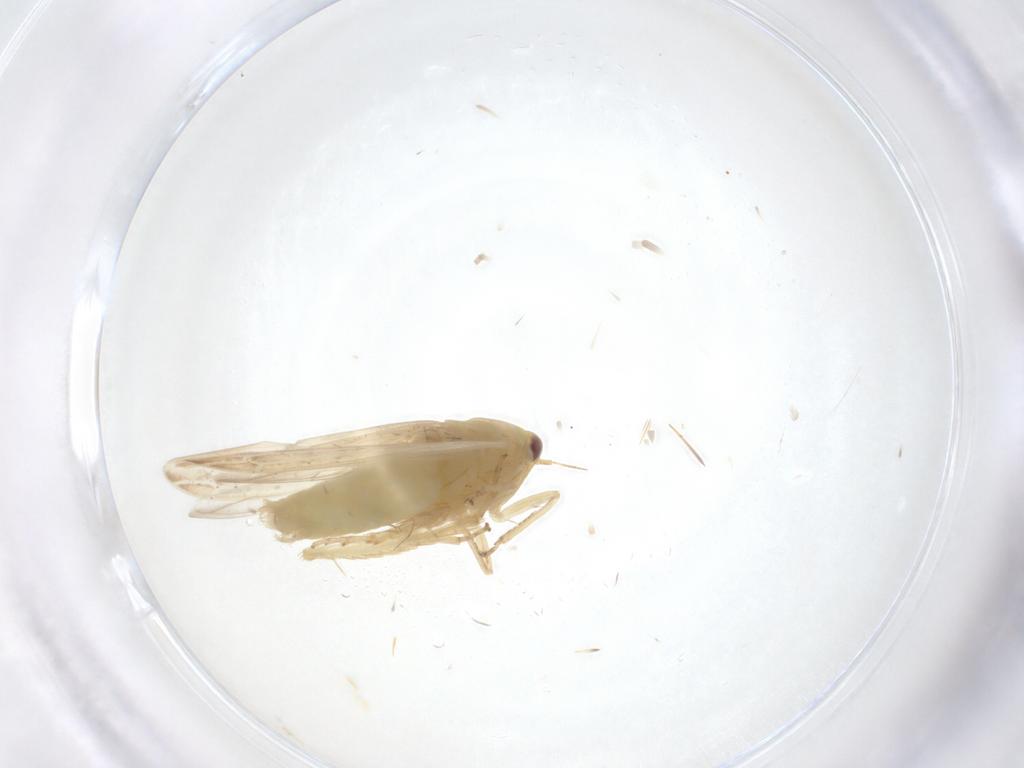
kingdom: Animalia
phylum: Arthropoda
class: Insecta
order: Hemiptera
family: Cicadellidae
